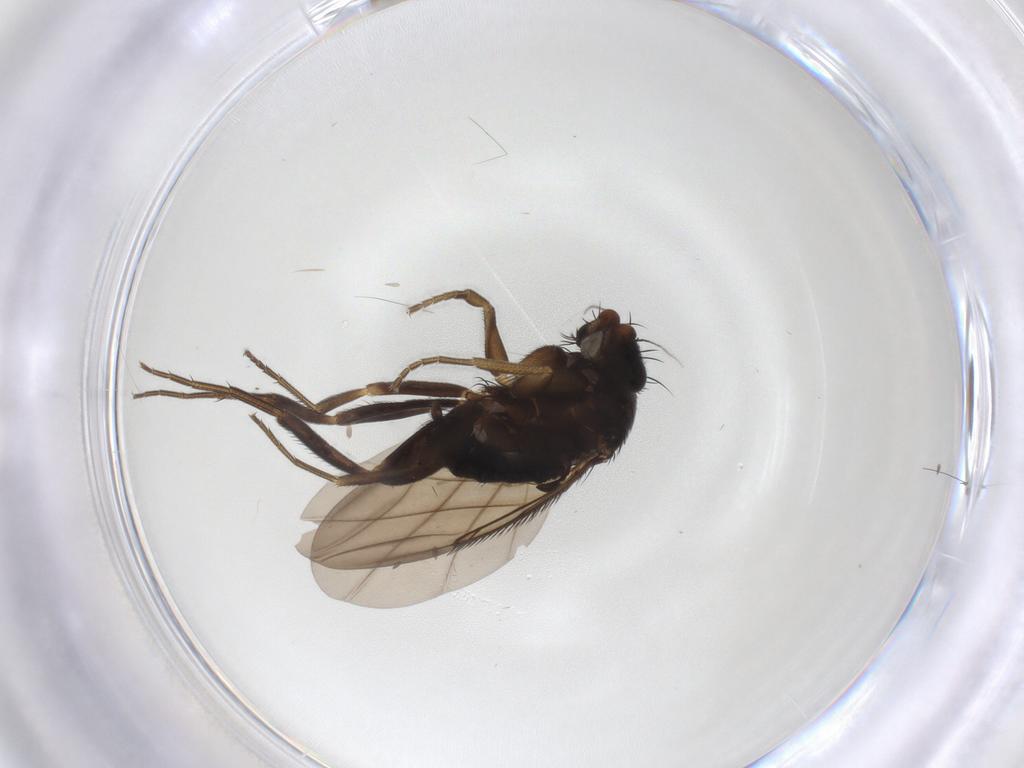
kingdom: Animalia
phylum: Arthropoda
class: Insecta
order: Diptera
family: Phoridae
